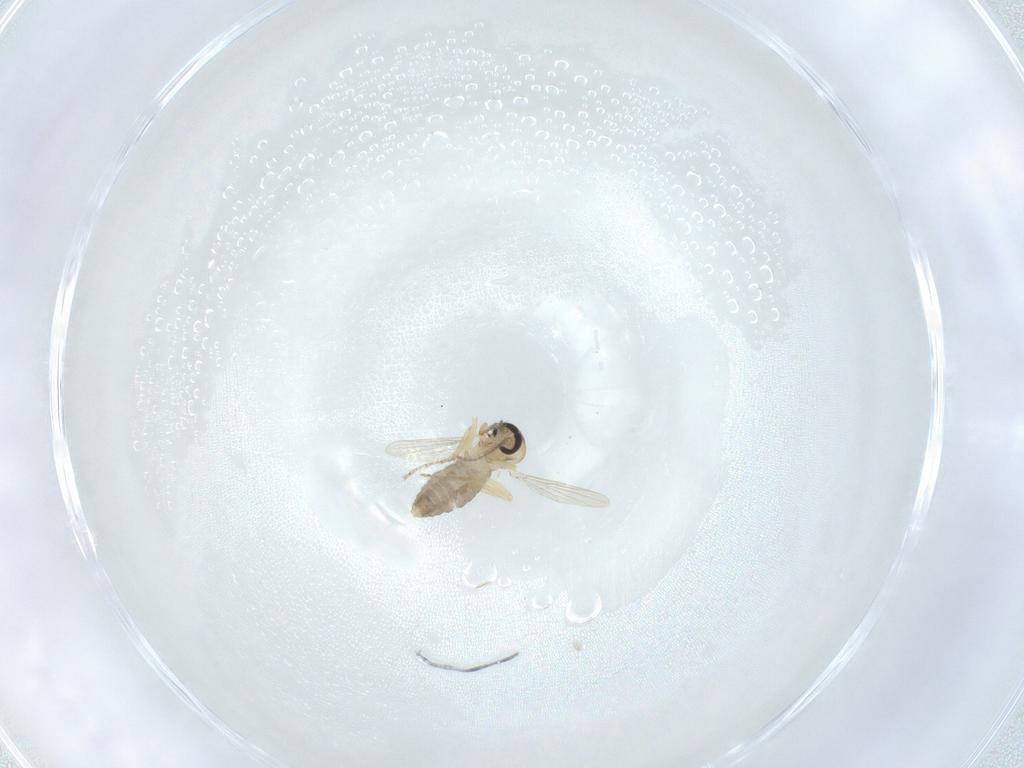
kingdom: Animalia
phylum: Arthropoda
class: Insecta
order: Diptera
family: Ceratopogonidae
